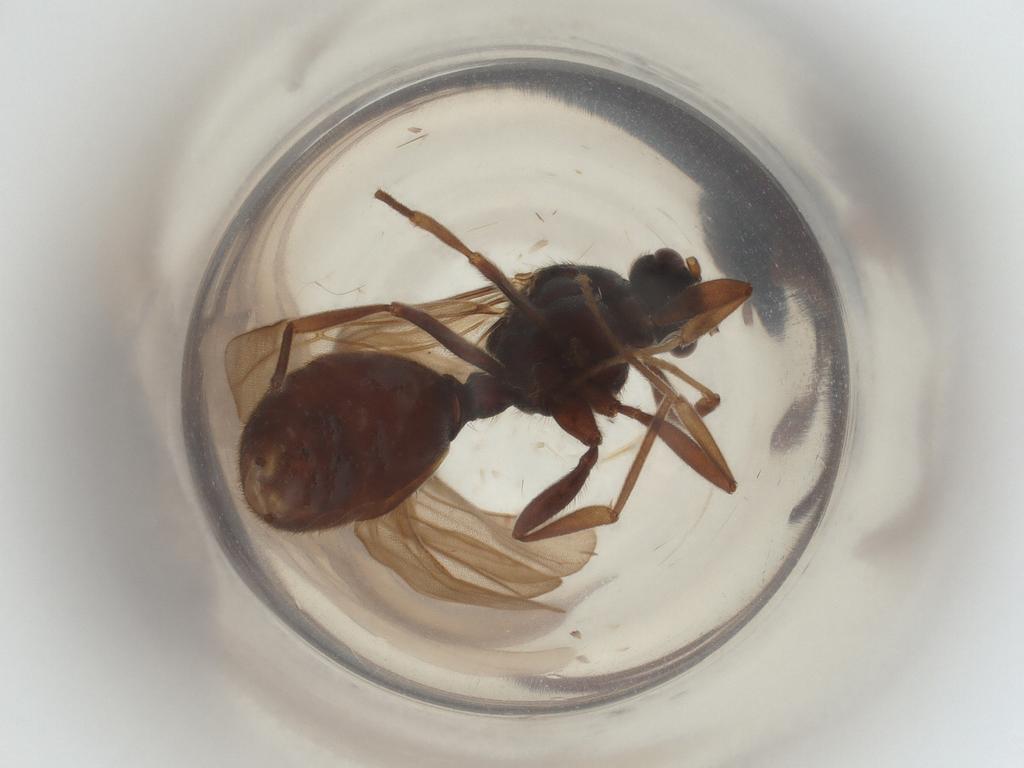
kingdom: Animalia
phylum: Arthropoda
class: Insecta
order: Hymenoptera
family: Formicidae
